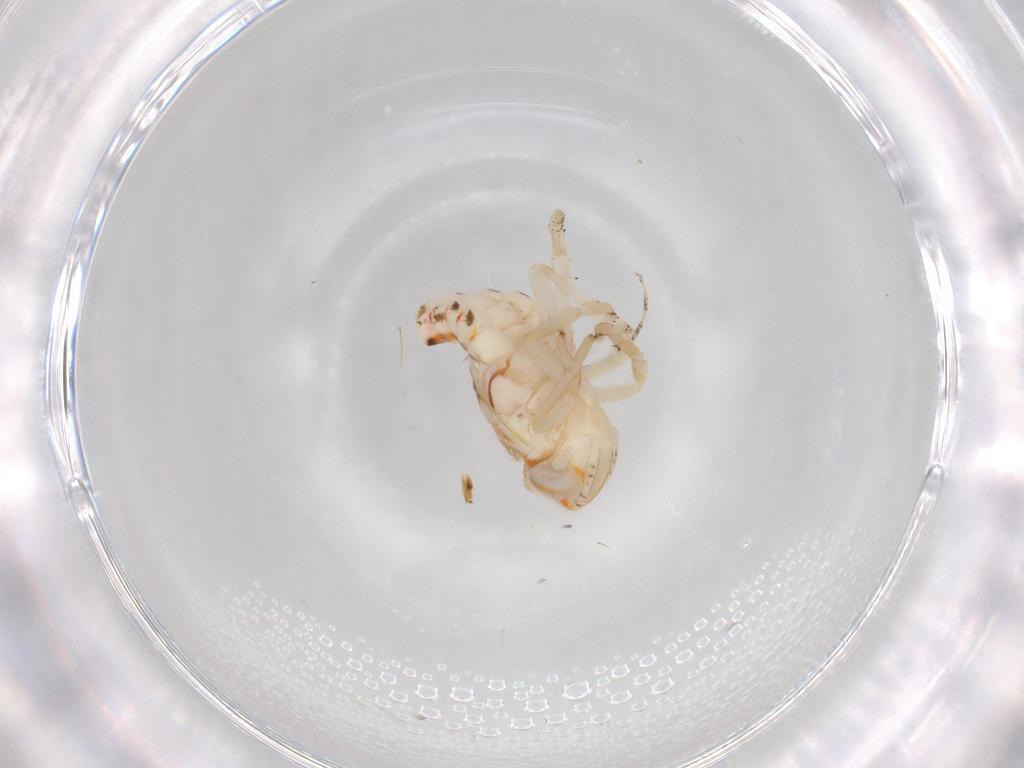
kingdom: Animalia
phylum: Arthropoda
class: Insecta
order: Hemiptera
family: Nogodinidae
